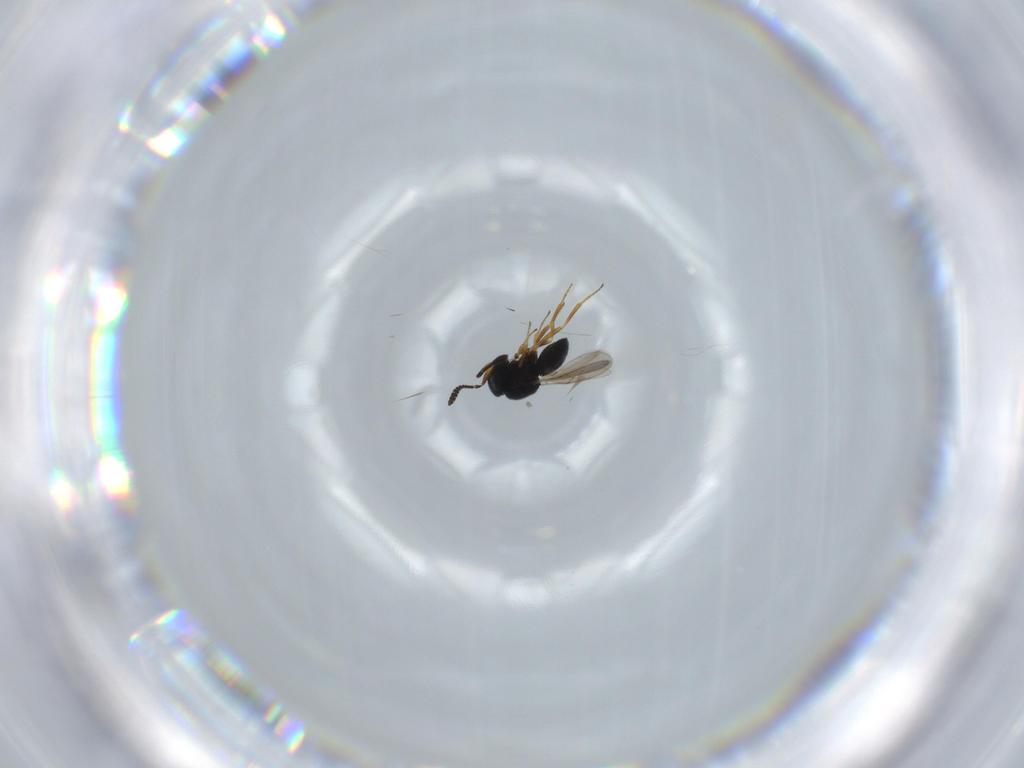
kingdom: Animalia
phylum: Arthropoda
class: Insecta
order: Hymenoptera
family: Scelionidae
